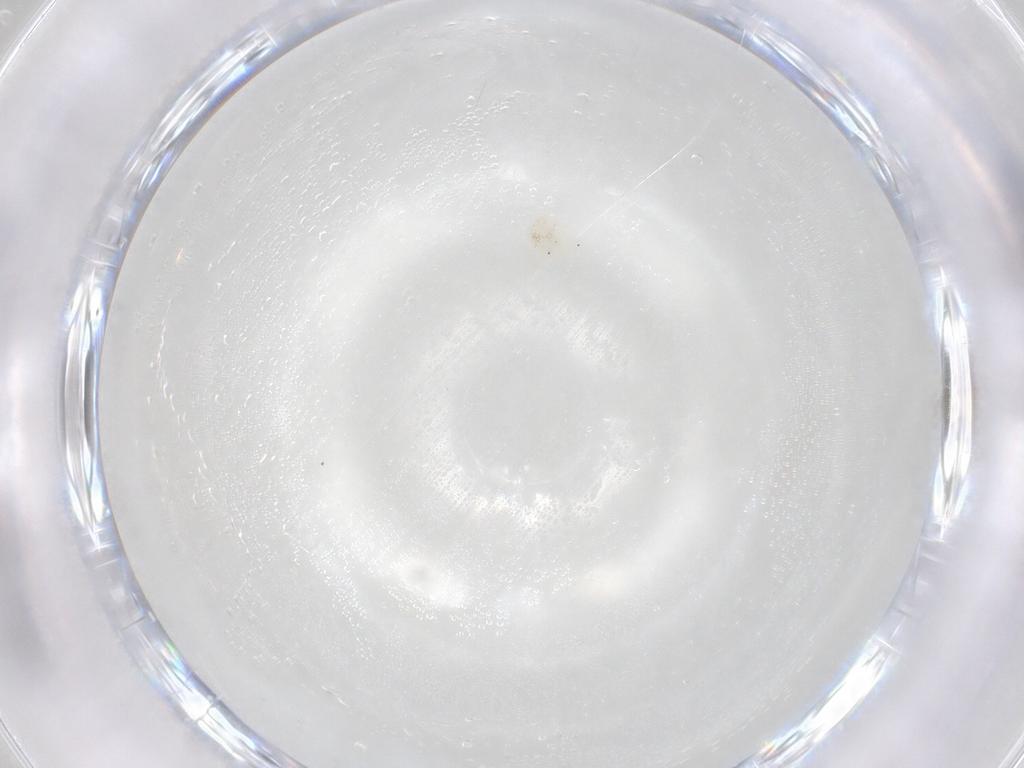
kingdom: Animalia
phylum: Arthropoda
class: Arachnida
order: Trombidiformes
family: Anystidae
